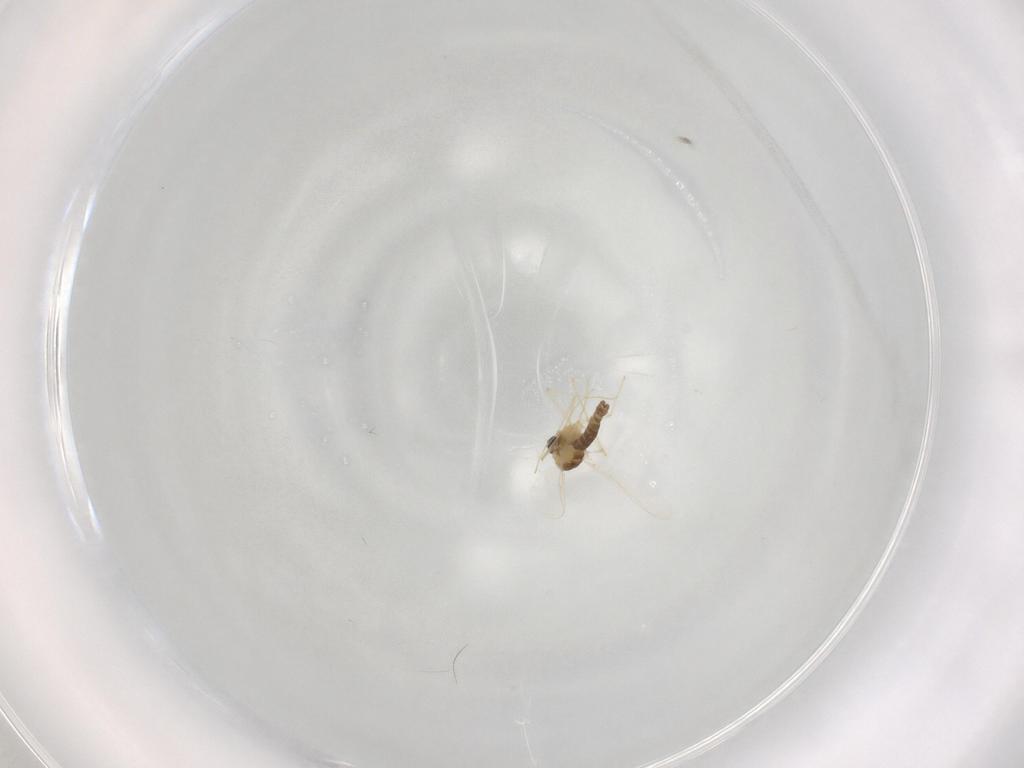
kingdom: Animalia
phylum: Arthropoda
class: Insecta
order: Diptera
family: Chironomidae
